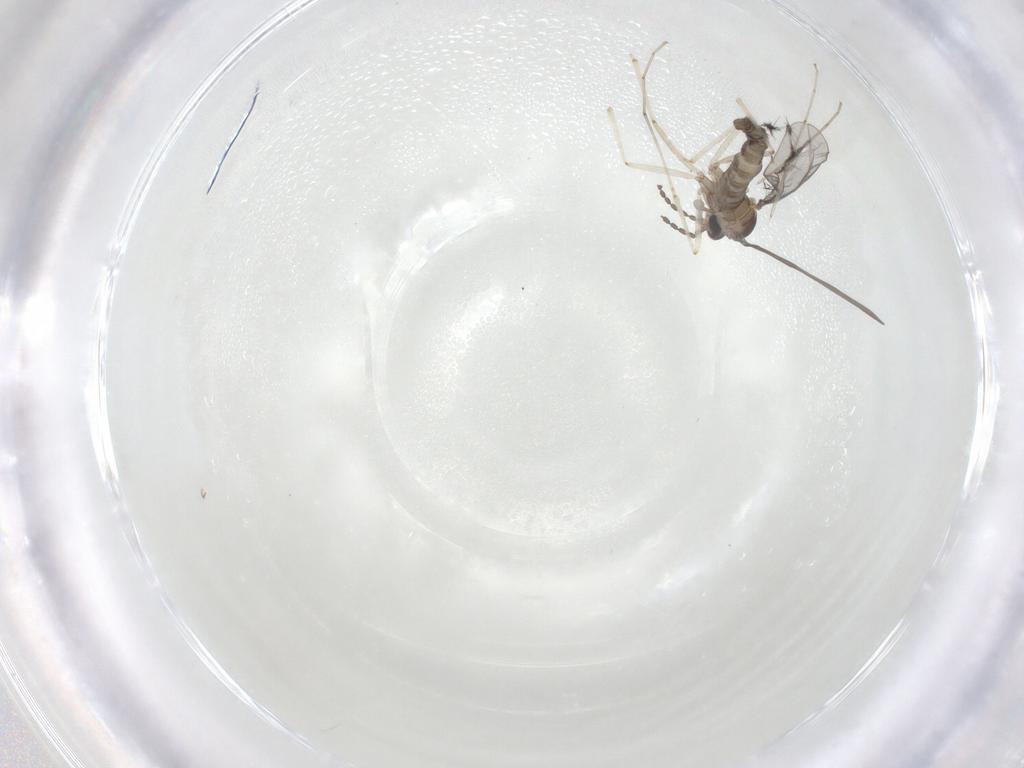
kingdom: Animalia
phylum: Arthropoda
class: Insecta
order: Diptera
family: Cecidomyiidae
